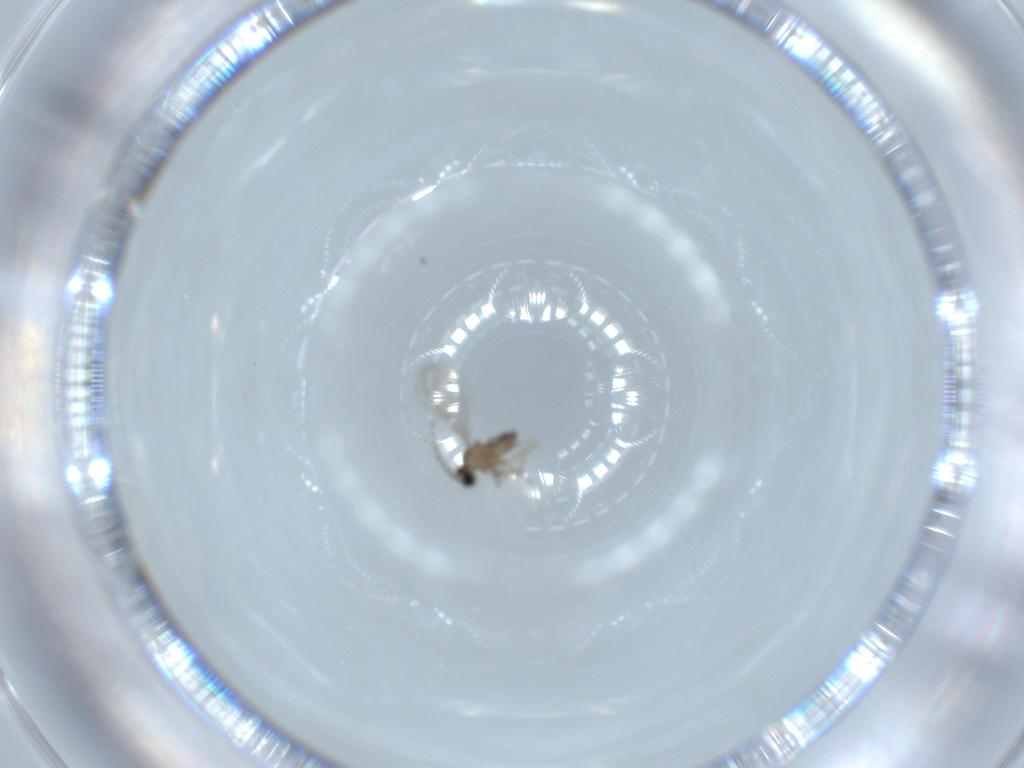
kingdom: Animalia
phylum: Arthropoda
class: Insecta
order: Diptera
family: Cecidomyiidae
